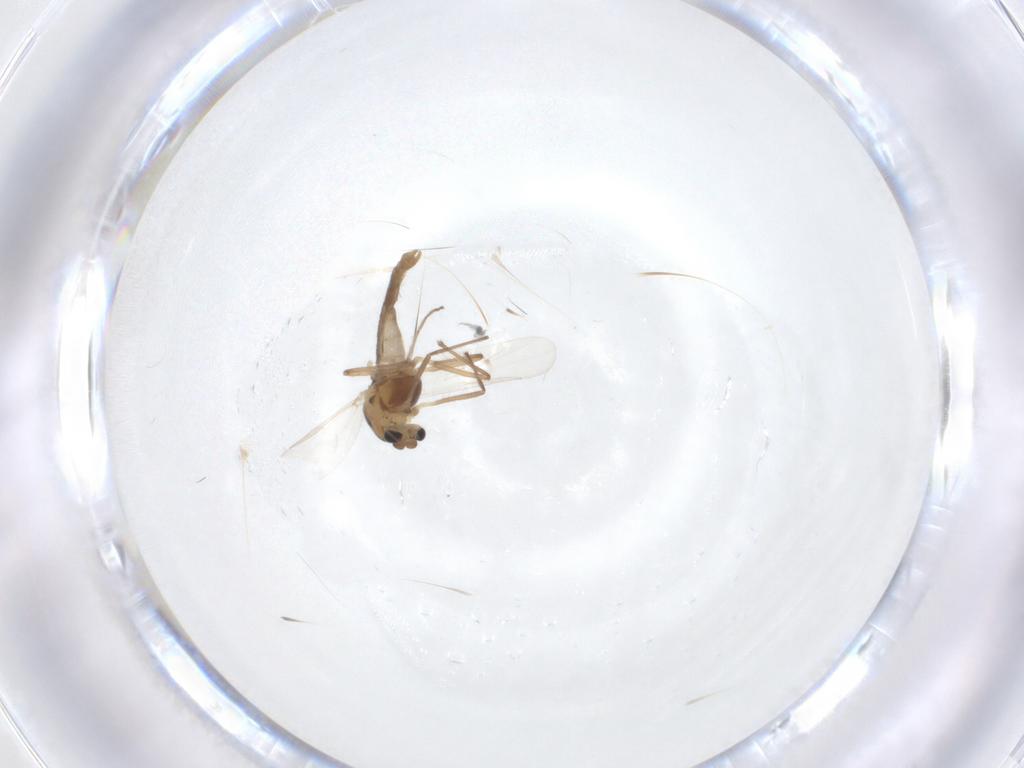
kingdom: Animalia
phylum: Arthropoda
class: Insecta
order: Diptera
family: Chironomidae
